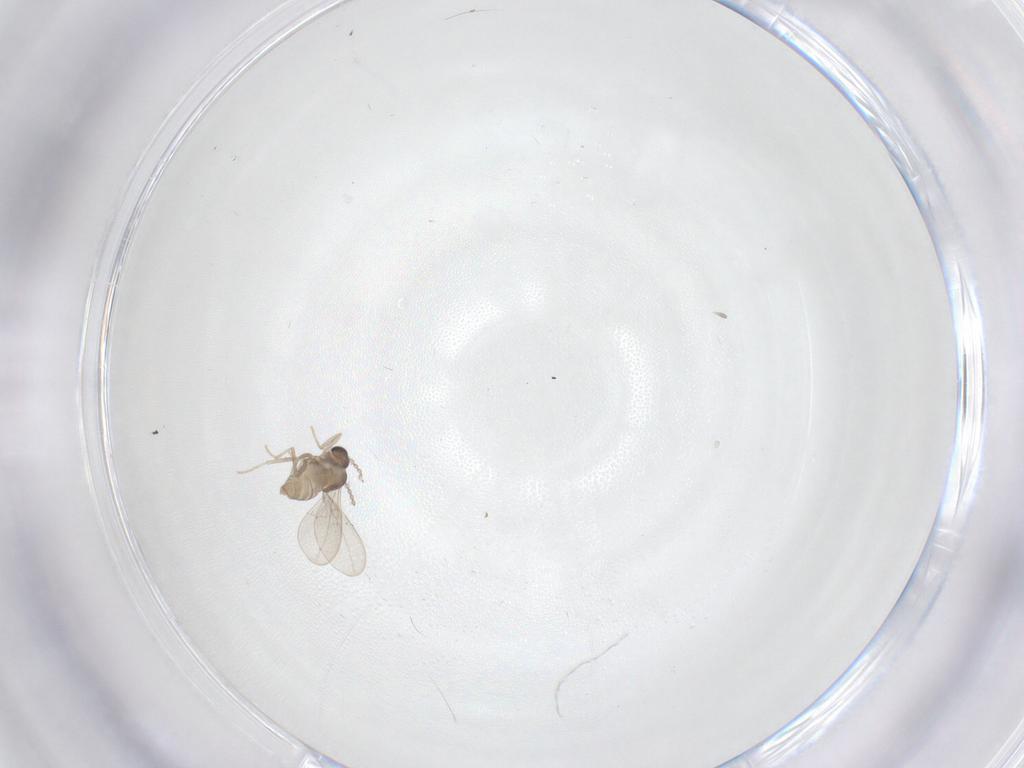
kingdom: Animalia
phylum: Arthropoda
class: Insecta
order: Diptera
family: Cecidomyiidae
